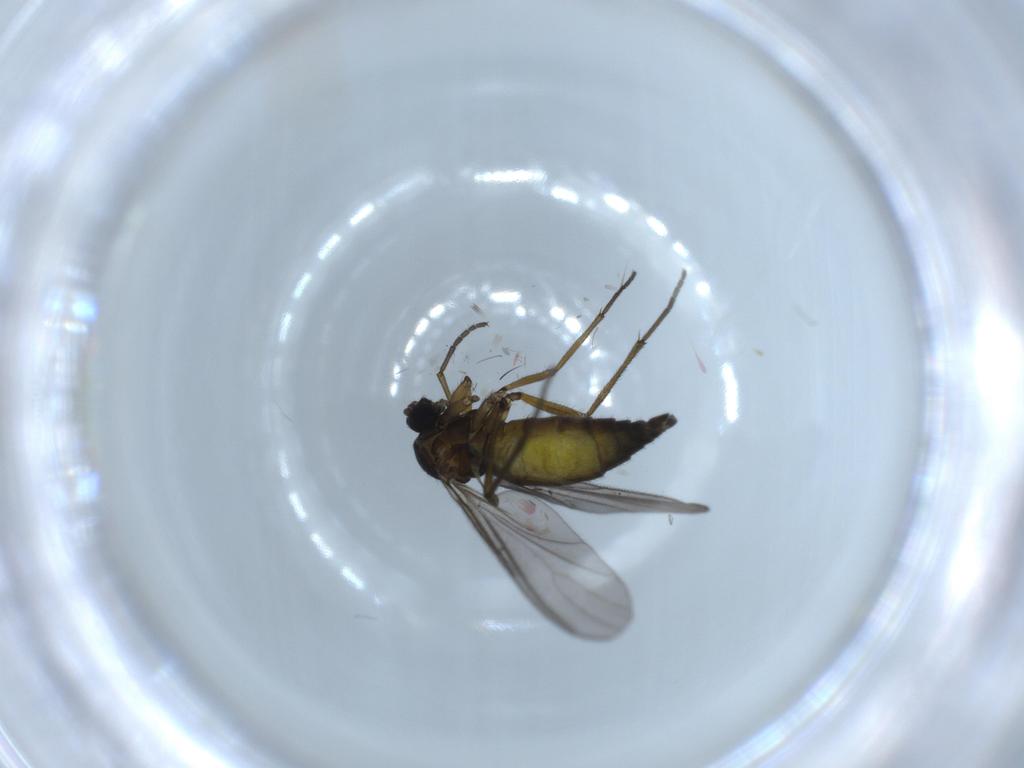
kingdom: Animalia
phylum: Arthropoda
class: Insecta
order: Diptera
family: Sciaridae
